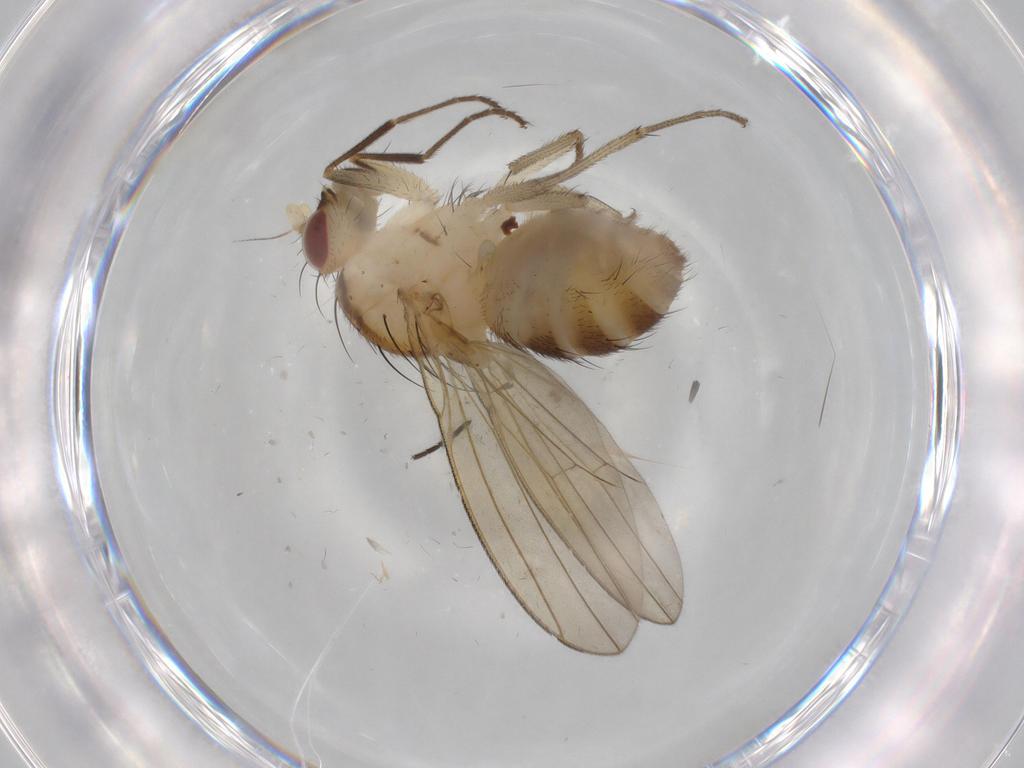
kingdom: Animalia
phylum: Arthropoda
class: Insecta
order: Diptera
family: Lauxaniidae
